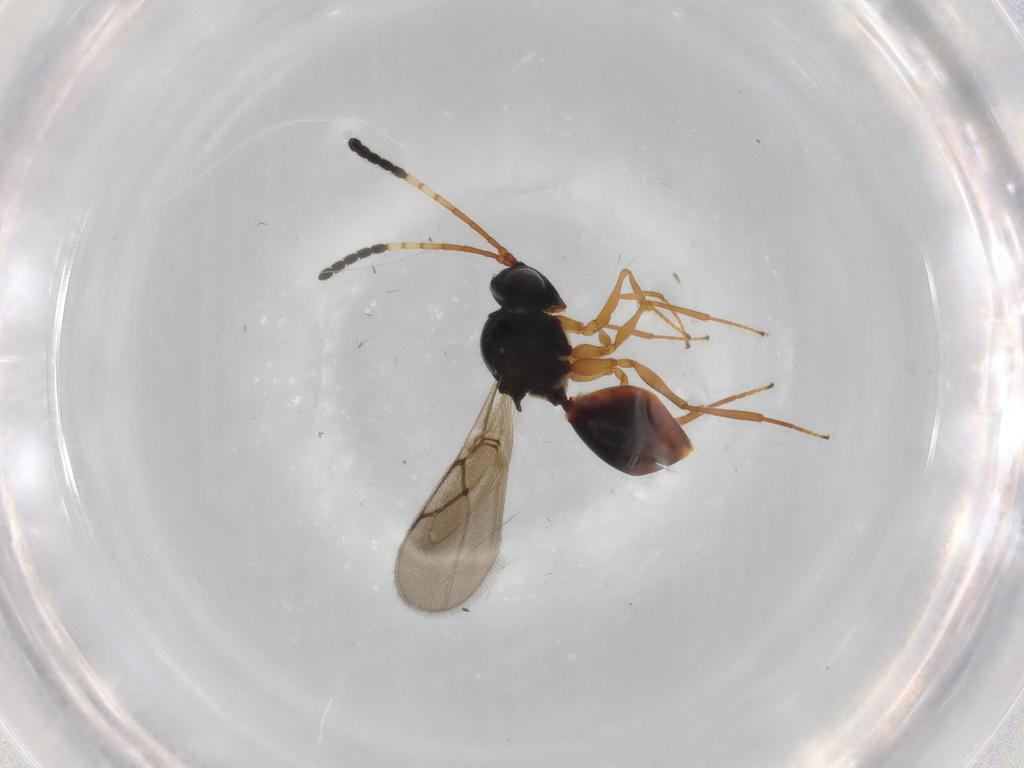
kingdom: Animalia
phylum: Arthropoda
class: Insecta
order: Hymenoptera
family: Figitidae
